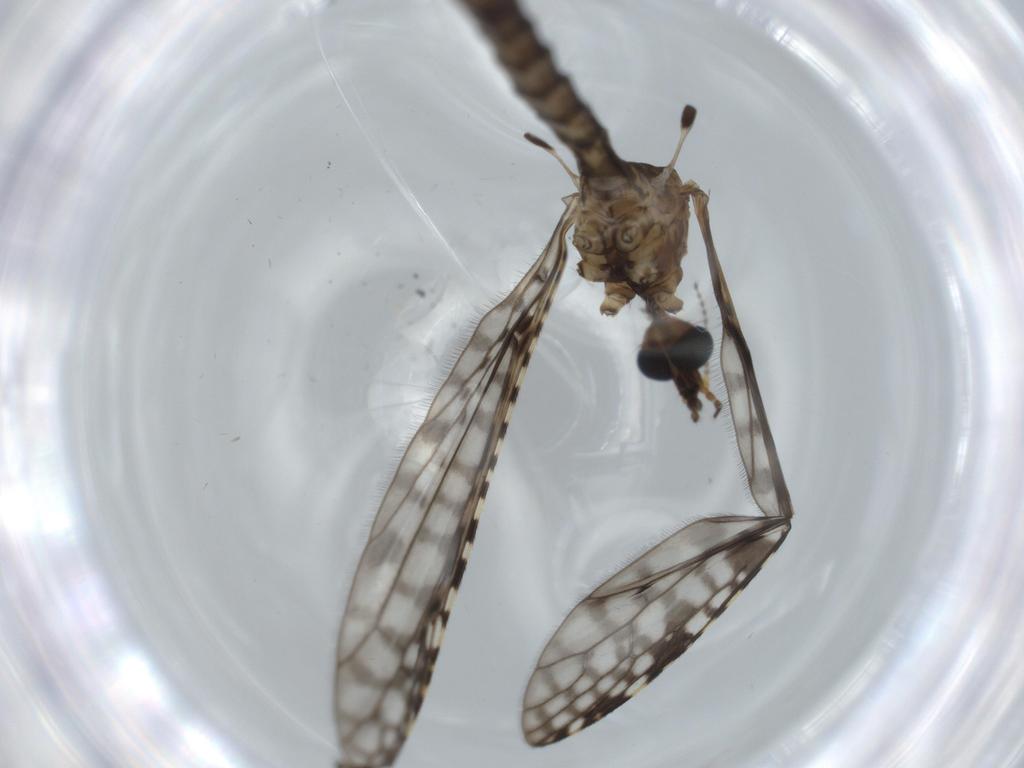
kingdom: Animalia
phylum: Arthropoda
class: Insecta
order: Diptera
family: Sciaridae
